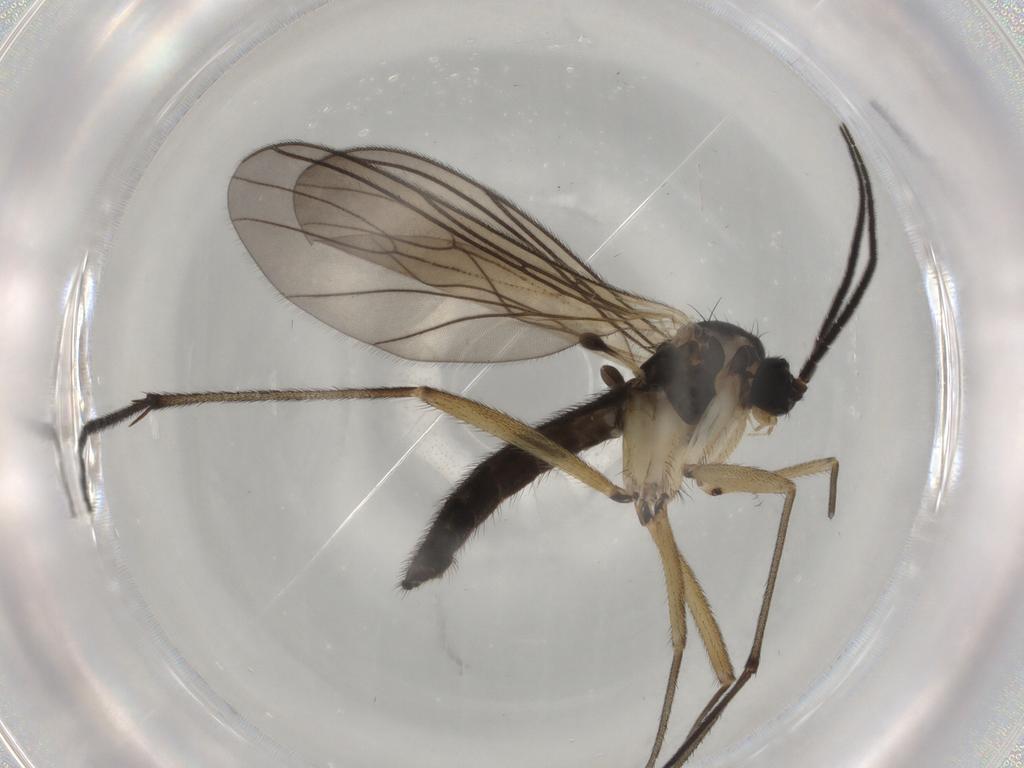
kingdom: Animalia
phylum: Arthropoda
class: Insecta
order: Diptera
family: Sciaridae
